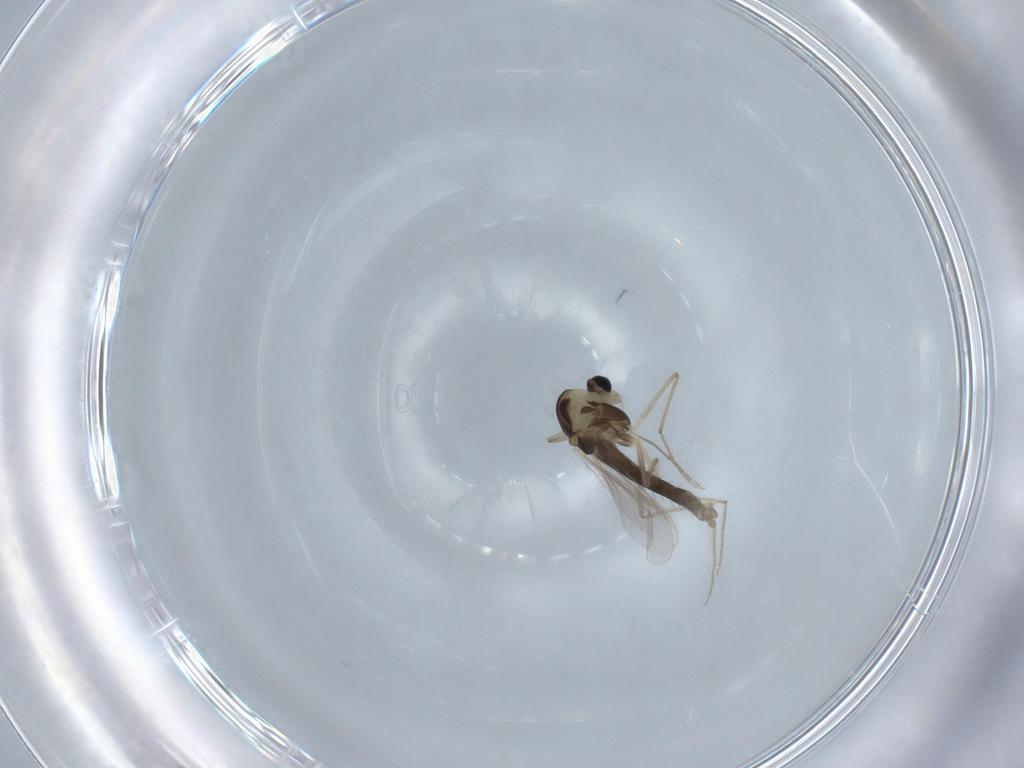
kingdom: Animalia
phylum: Arthropoda
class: Insecta
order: Diptera
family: Chironomidae
